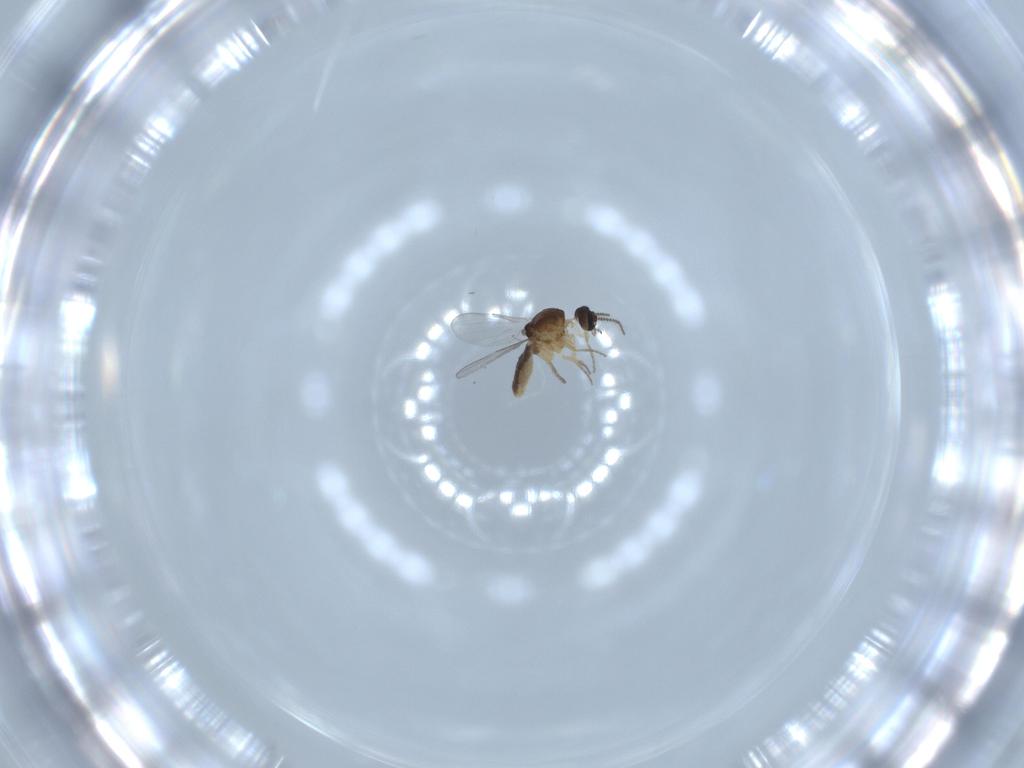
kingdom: Animalia
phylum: Arthropoda
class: Insecta
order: Diptera
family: Ceratopogonidae
